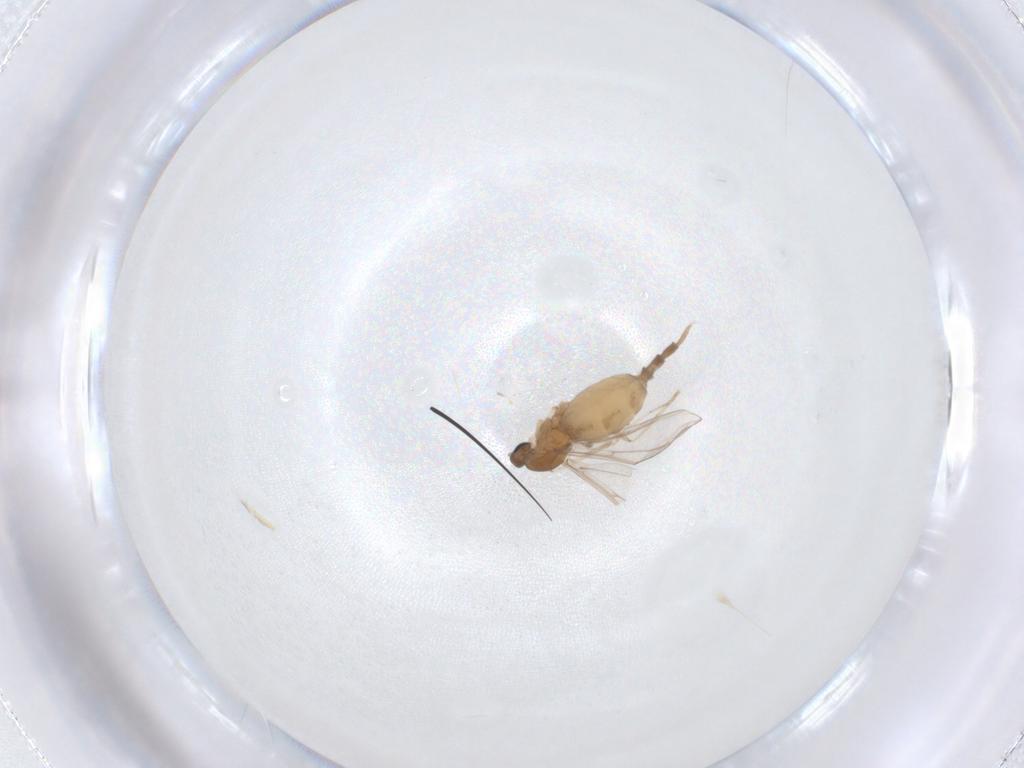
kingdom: Animalia
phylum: Arthropoda
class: Insecta
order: Diptera
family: Cecidomyiidae
